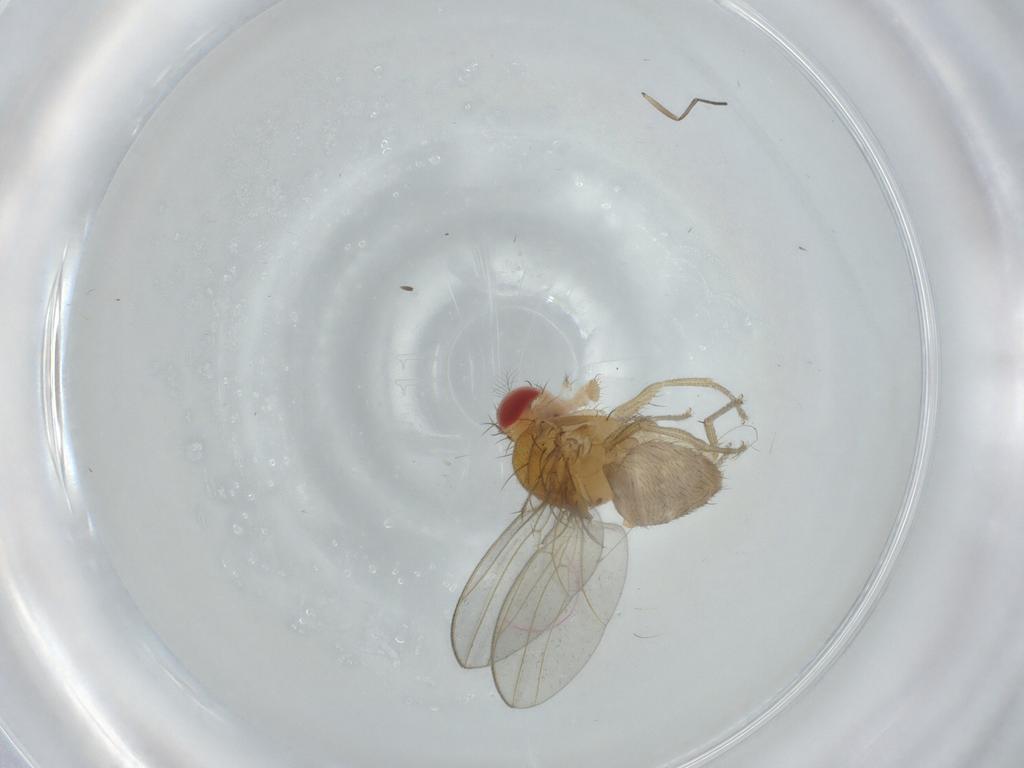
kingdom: Animalia
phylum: Arthropoda
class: Insecta
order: Diptera
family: Drosophilidae
